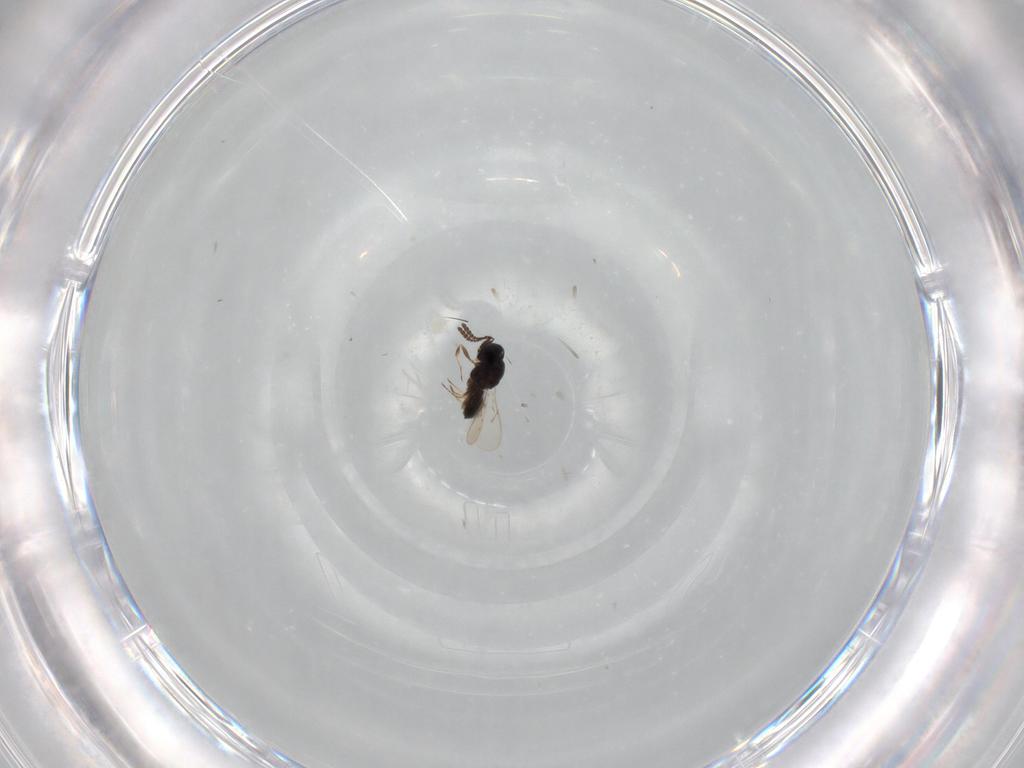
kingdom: Animalia
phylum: Arthropoda
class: Insecta
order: Hymenoptera
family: Scelionidae
